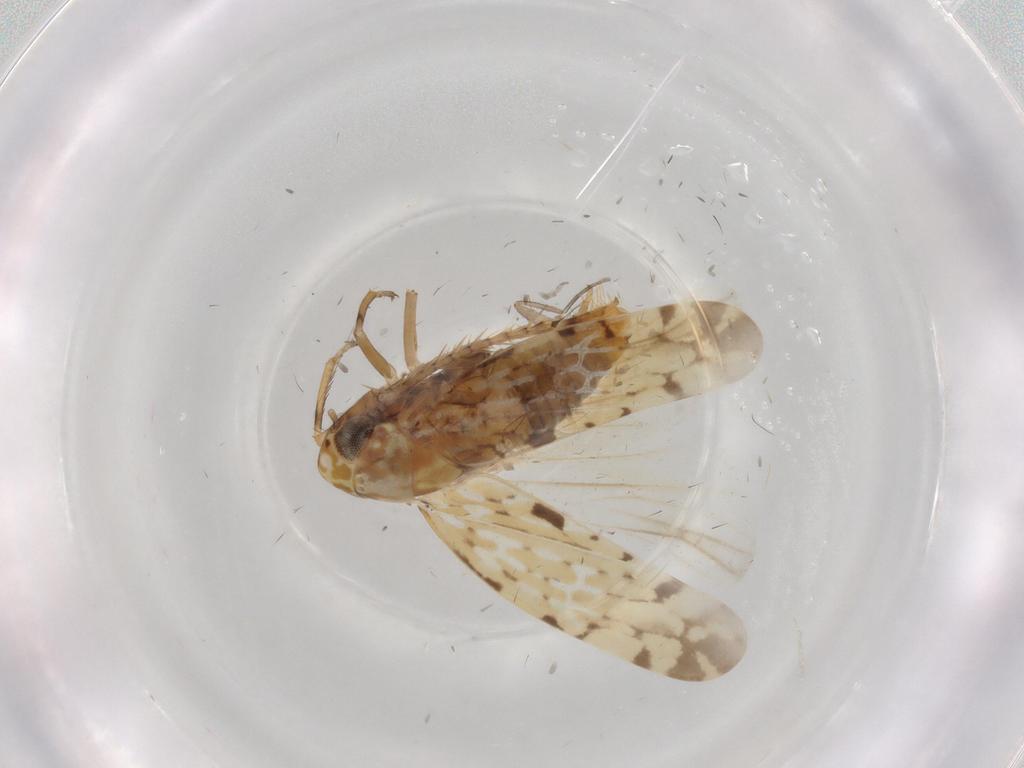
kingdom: Animalia
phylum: Arthropoda
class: Insecta
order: Hemiptera
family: Cicadellidae
